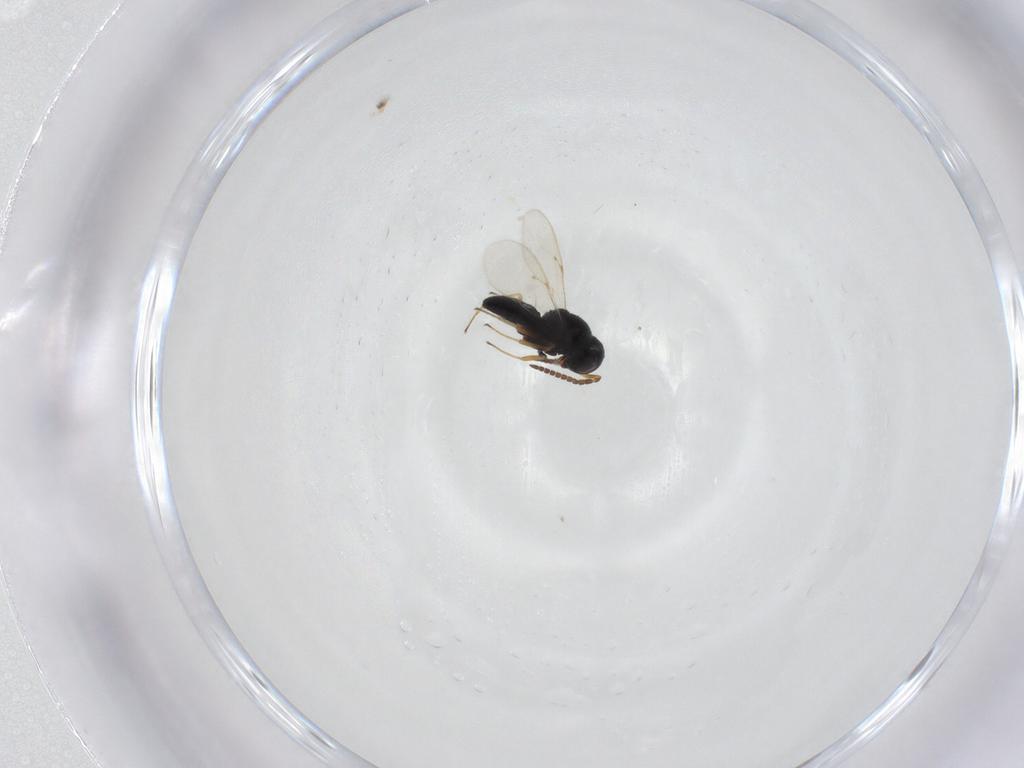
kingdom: Animalia
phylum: Arthropoda
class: Insecta
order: Hymenoptera
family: Scelionidae
